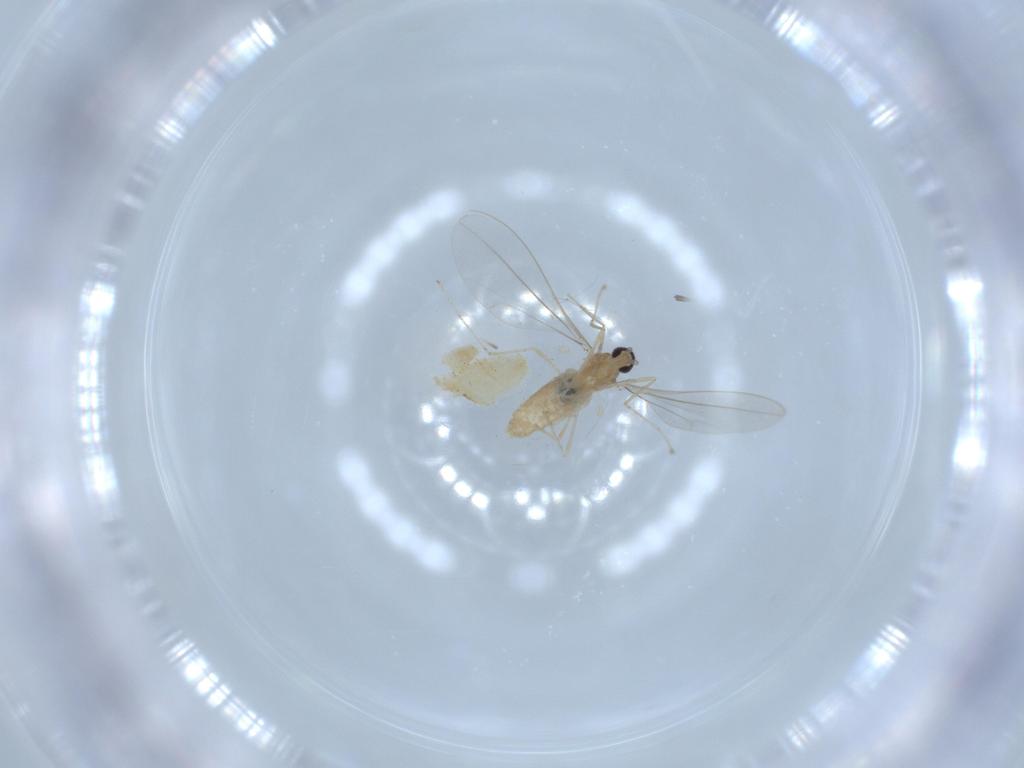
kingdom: Animalia
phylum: Arthropoda
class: Insecta
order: Diptera
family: Cecidomyiidae
